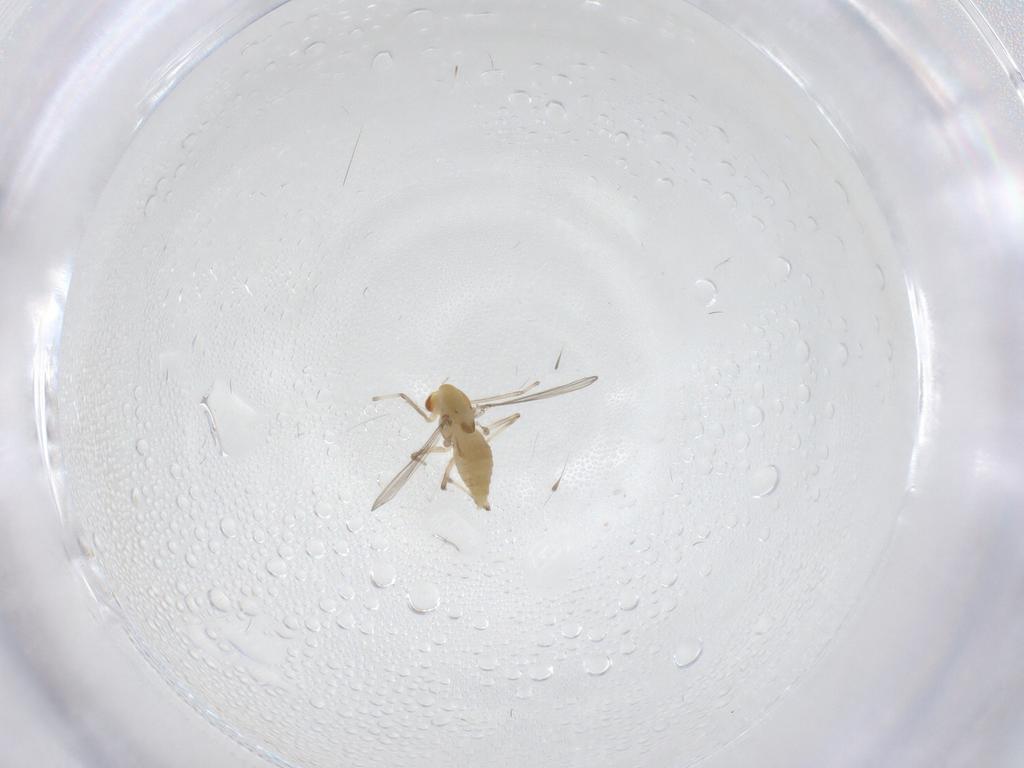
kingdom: Animalia
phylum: Arthropoda
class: Insecta
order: Diptera
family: Chironomidae
